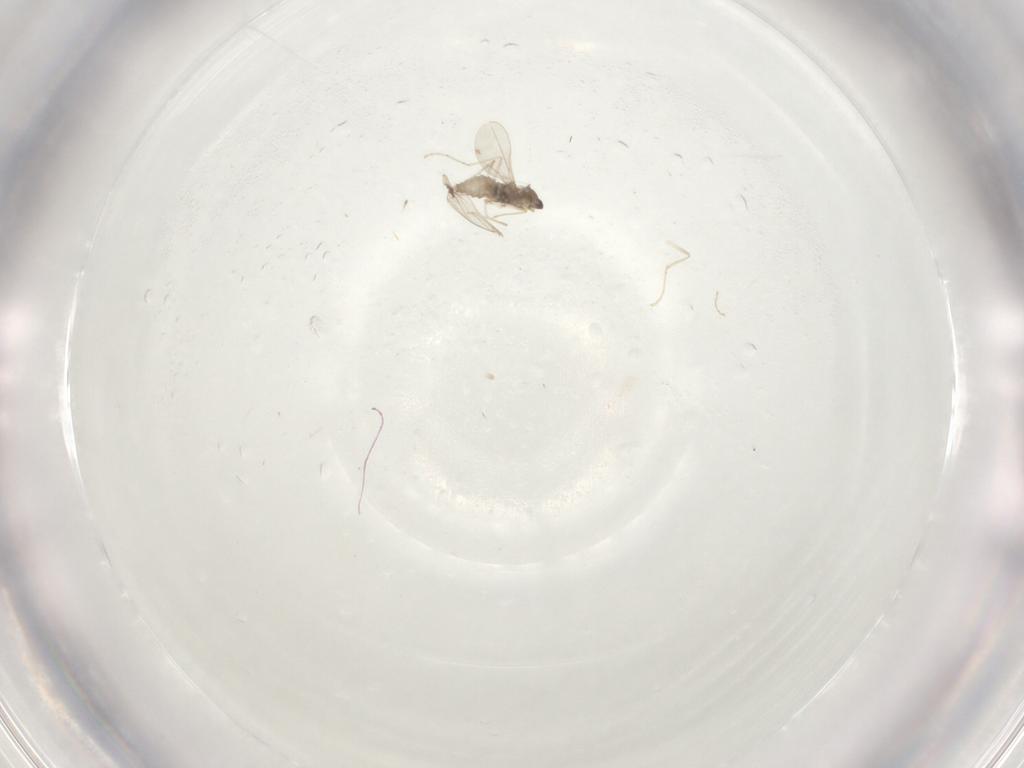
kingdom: Animalia
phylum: Arthropoda
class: Insecta
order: Diptera
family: Cecidomyiidae
